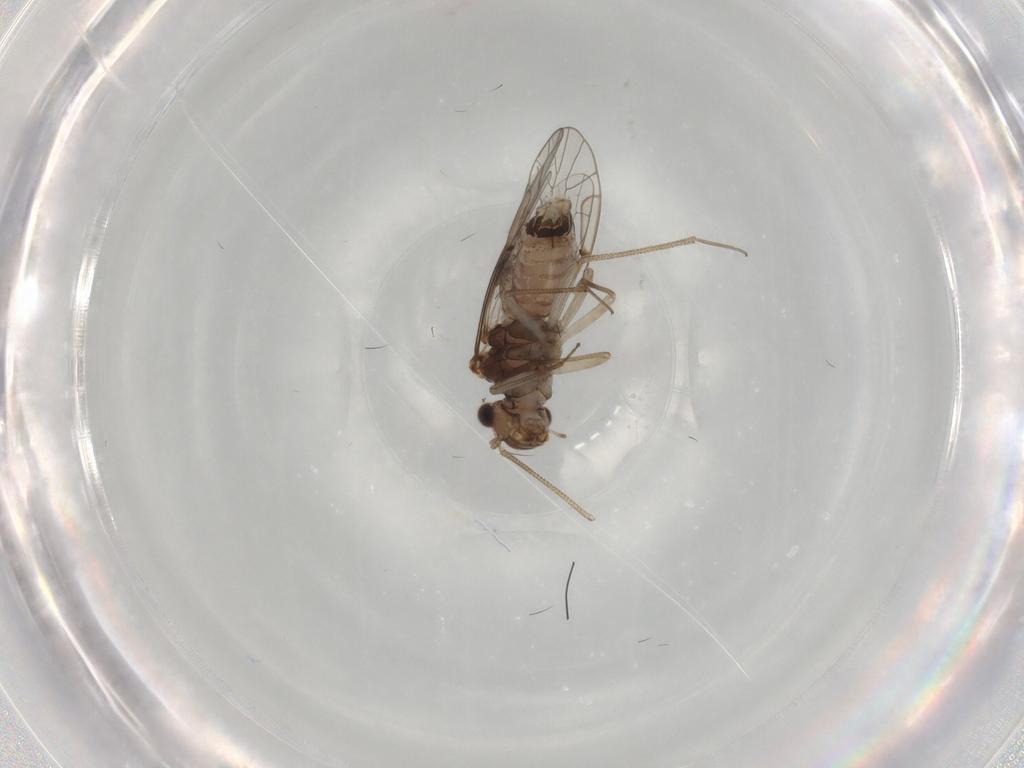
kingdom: Animalia
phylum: Arthropoda
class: Insecta
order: Psocodea
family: Lachesillidae
